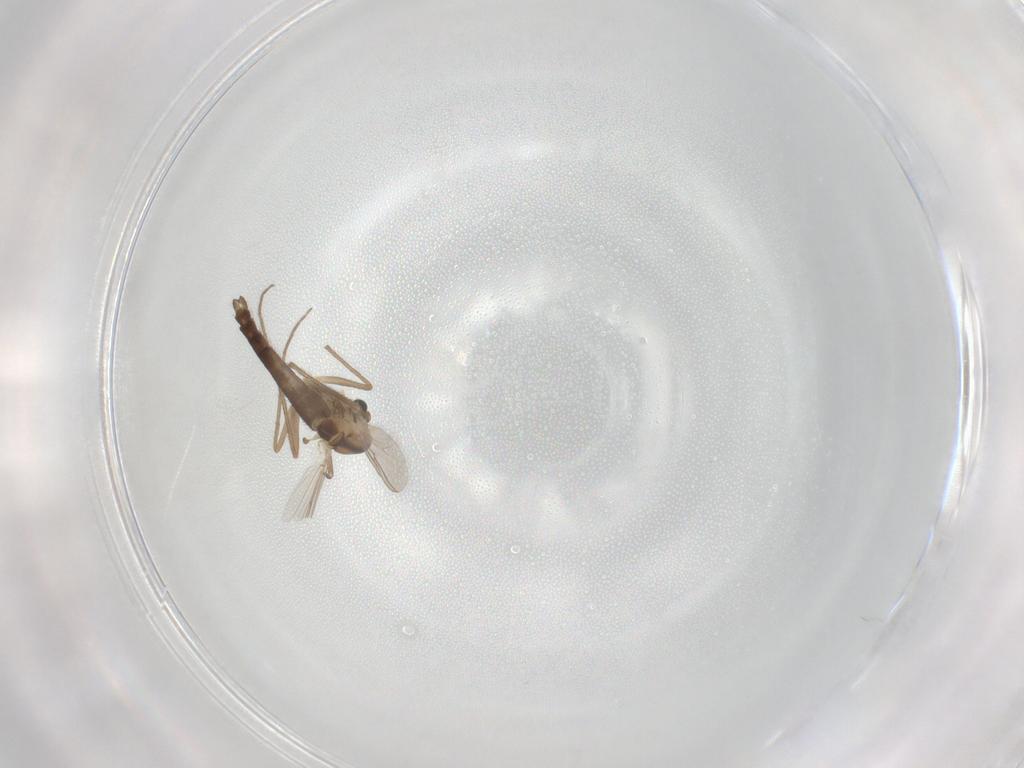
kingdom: Animalia
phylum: Arthropoda
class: Insecta
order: Diptera
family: Chironomidae
